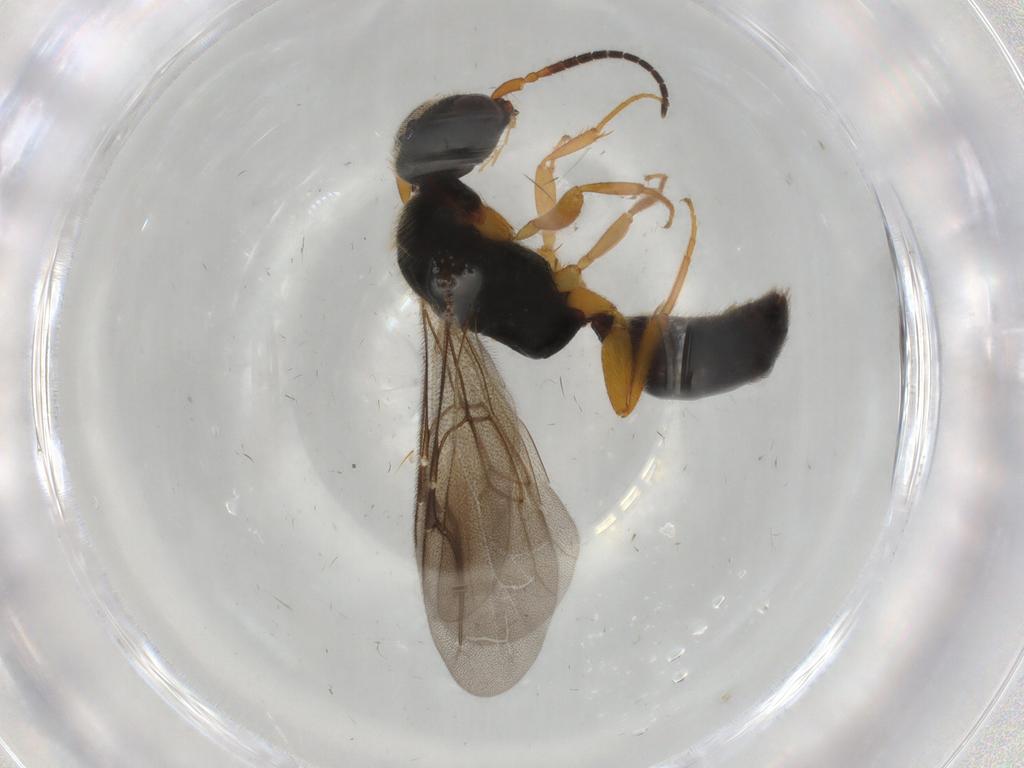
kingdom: Animalia
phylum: Arthropoda
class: Insecta
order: Hymenoptera
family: Bethylidae
